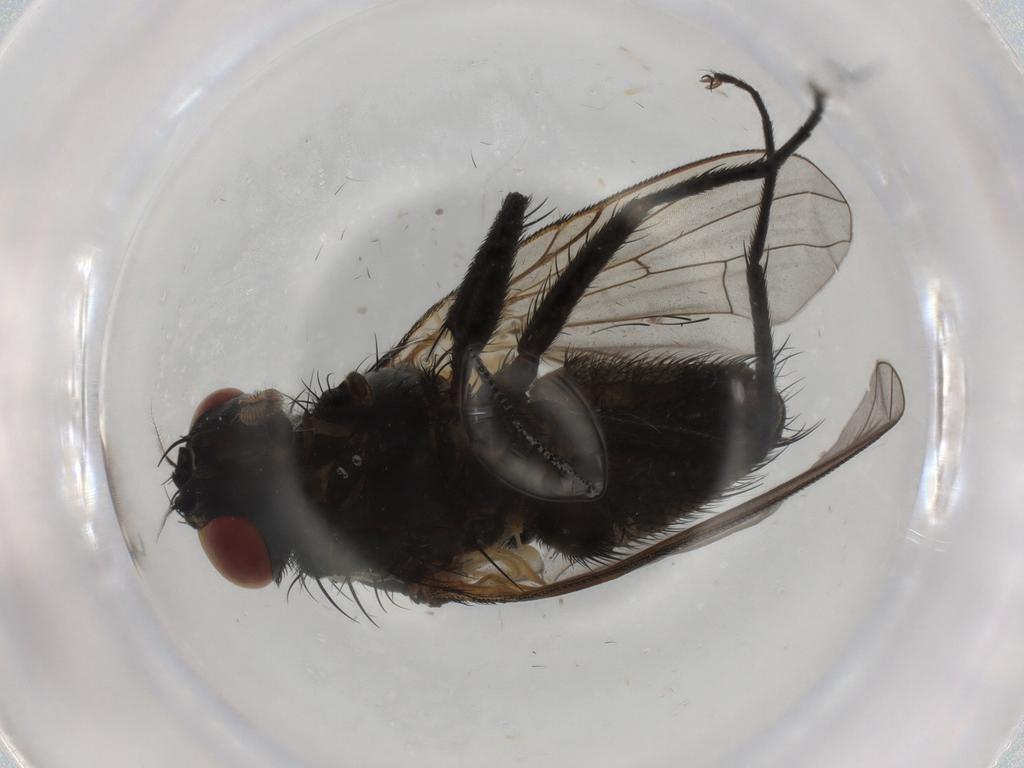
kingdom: Animalia
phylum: Arthropoda
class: Insecta
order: Diptera
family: Muscidae
